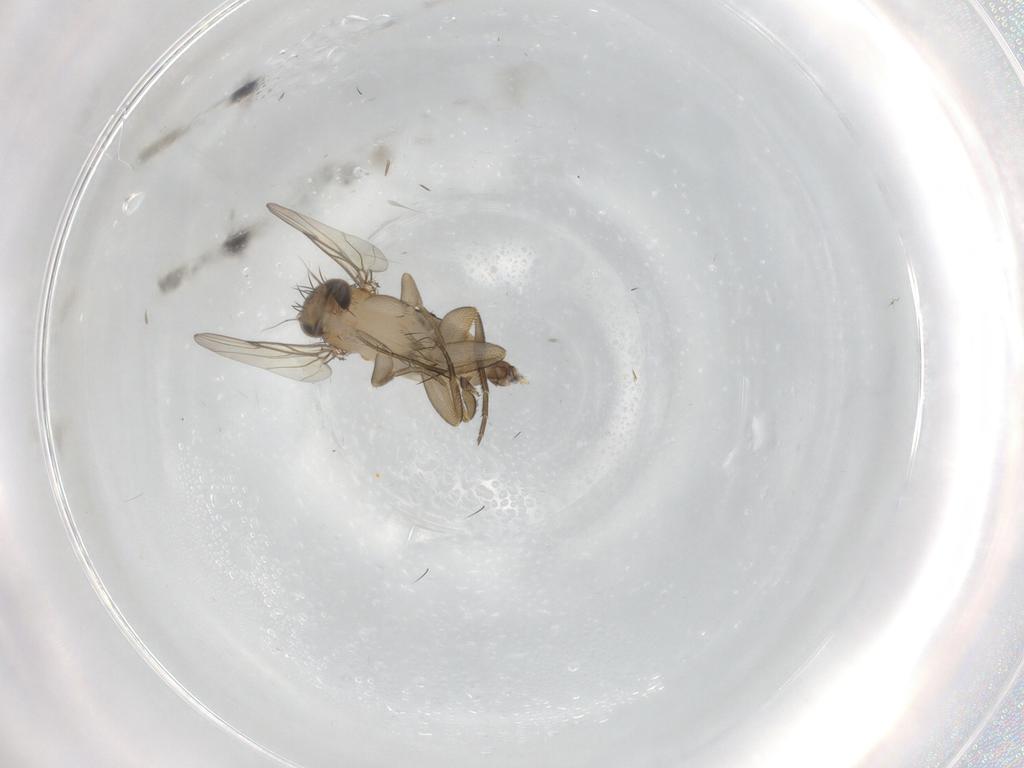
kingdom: Animalia
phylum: Arthropoda
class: Insecta
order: Diptera
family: Phoridae
